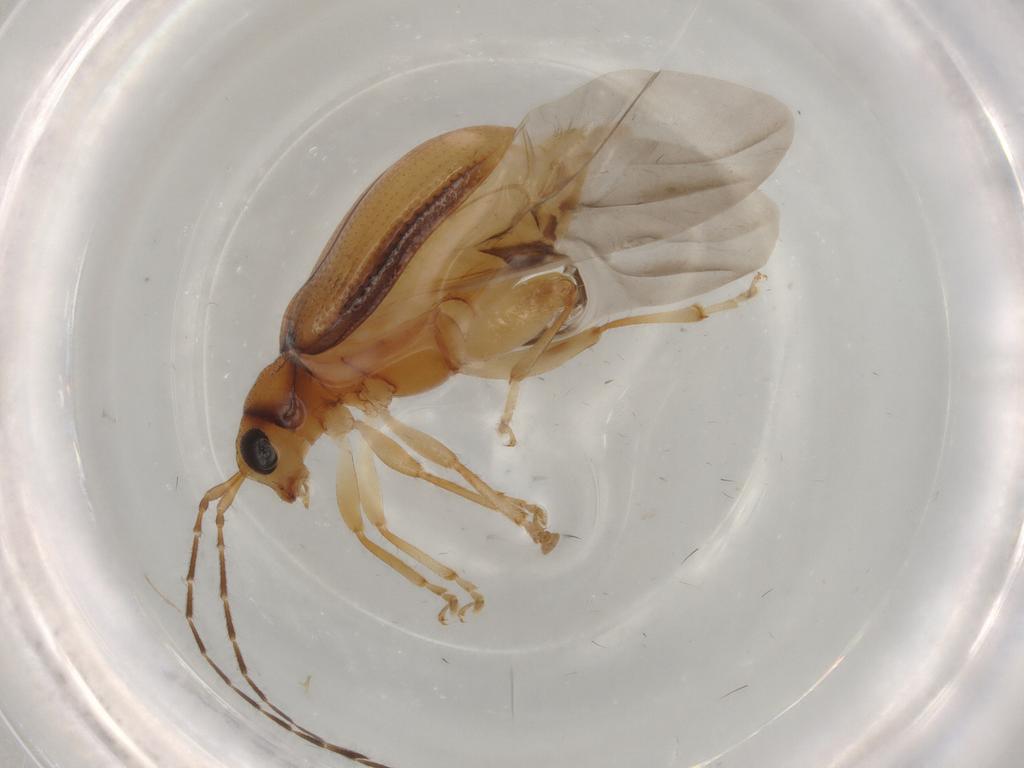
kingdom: Animalia
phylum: Arthropoda
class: Insecta
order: Coleoptera
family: Chrysomelidae
